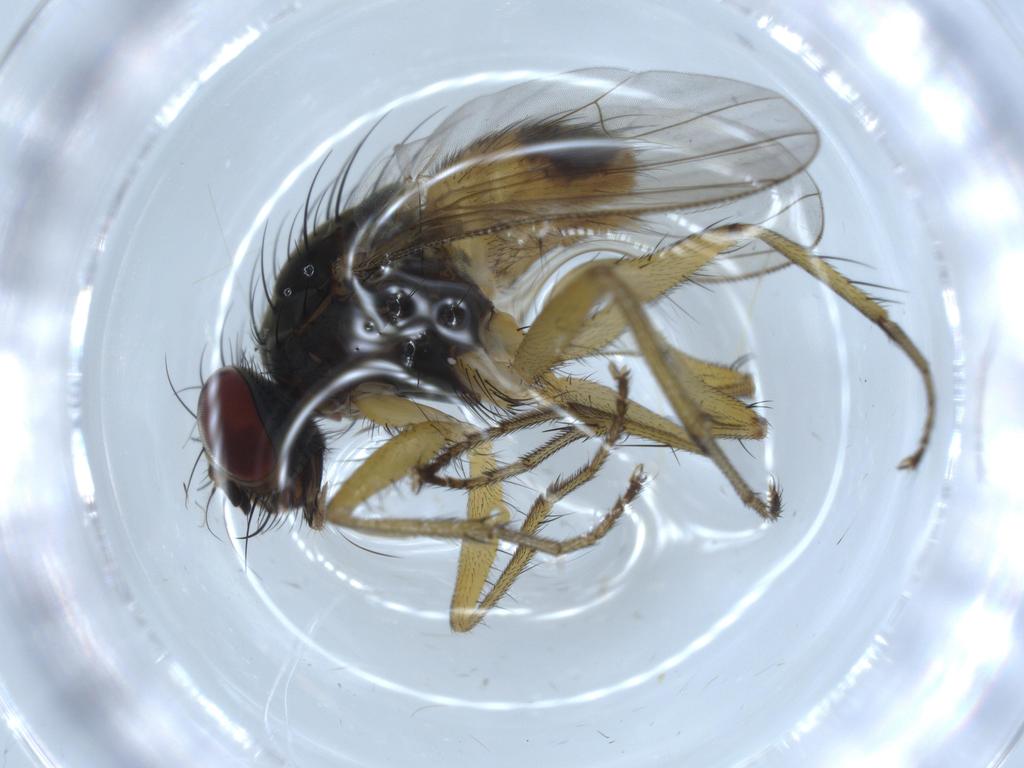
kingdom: Animalia
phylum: Arthropoda
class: Insecta
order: Diptera
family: Muscidae
